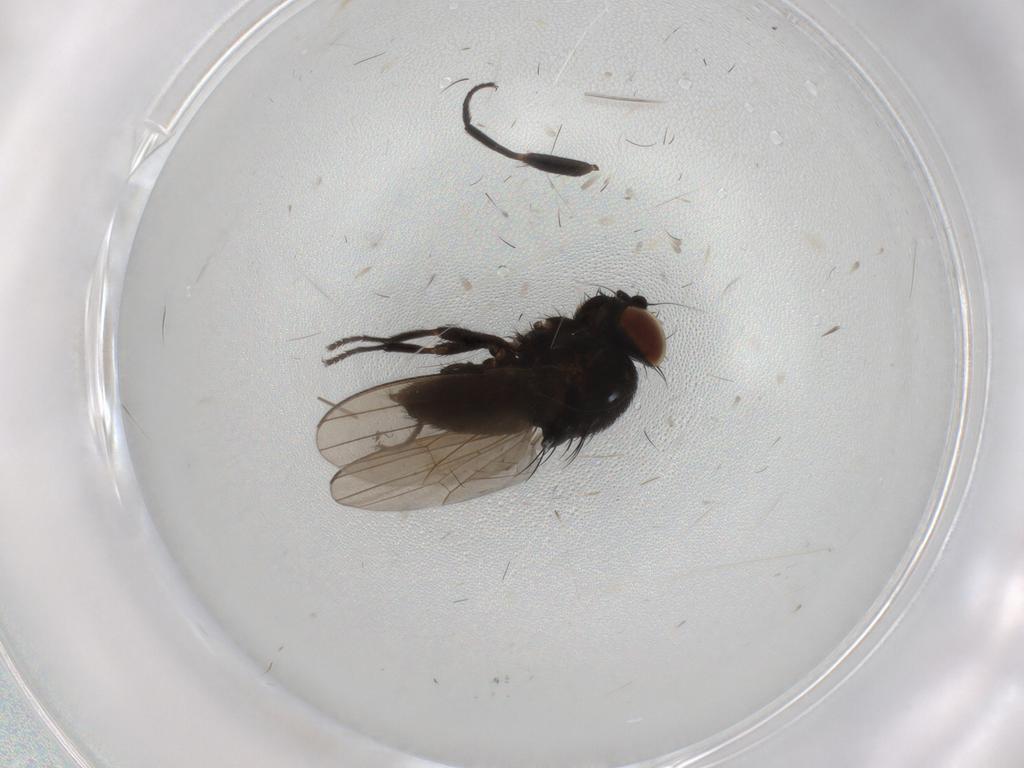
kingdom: Animalia
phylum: Arthropoda
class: Insecta
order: Diptera
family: Milichiidae
